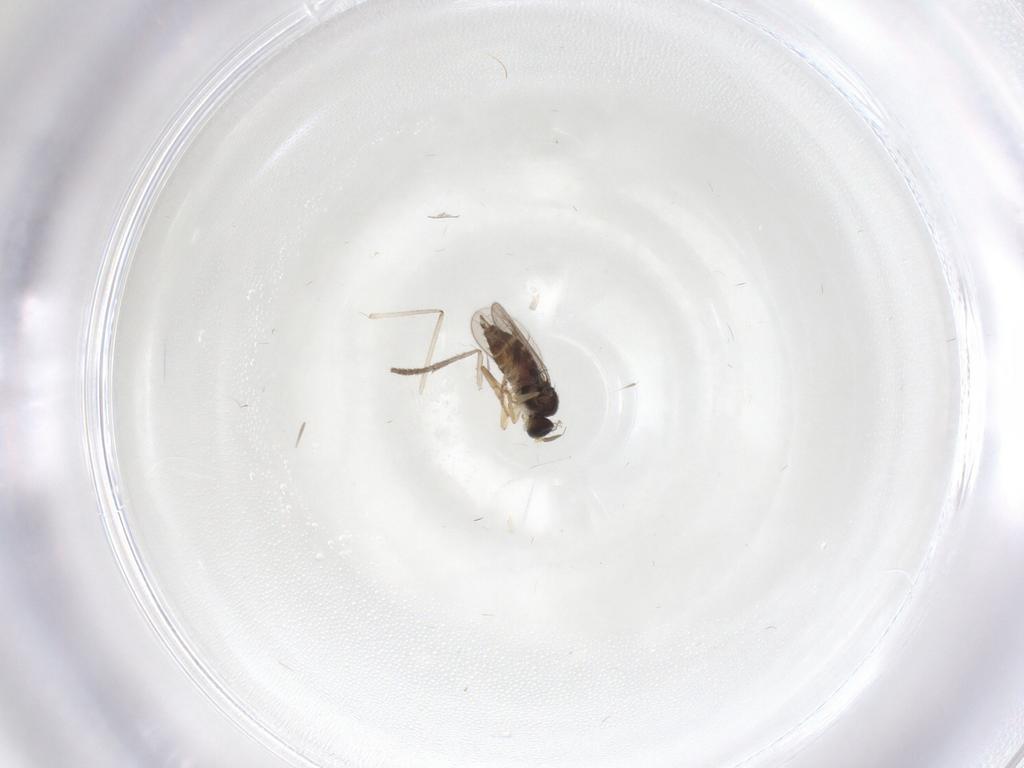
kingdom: Animalia
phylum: Arthropoda
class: Insecta
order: Diptera
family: Hybotidae
